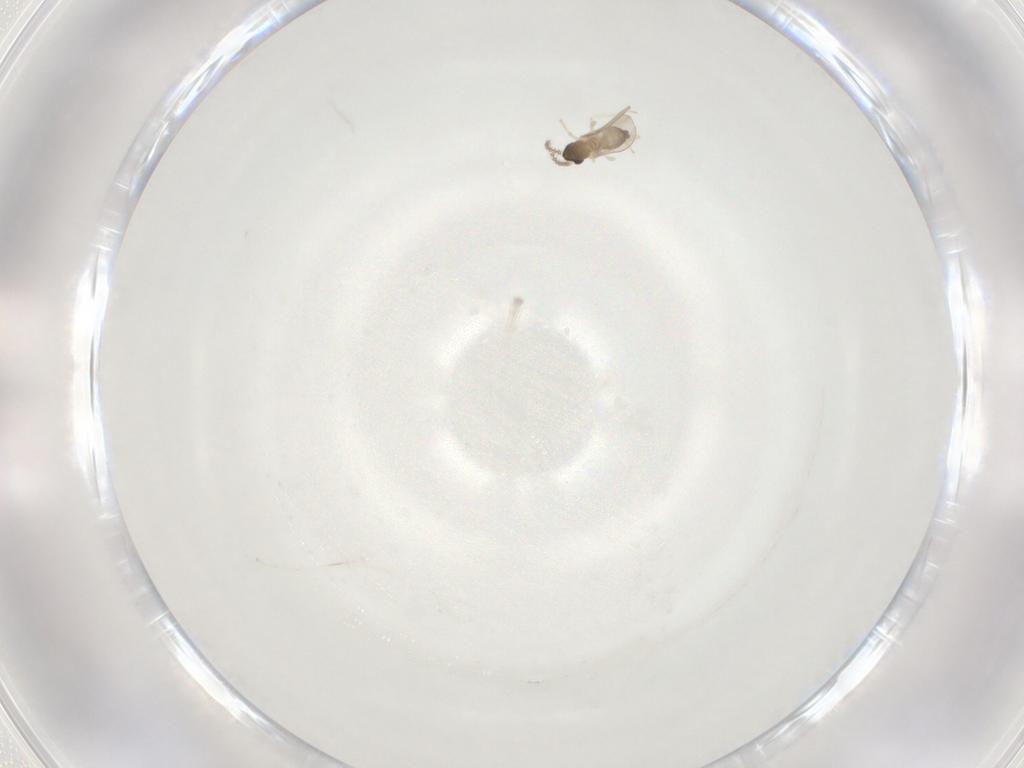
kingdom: Animalia
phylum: Arthropoda
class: Insecta
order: Diptera
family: Cecidomyiidae
